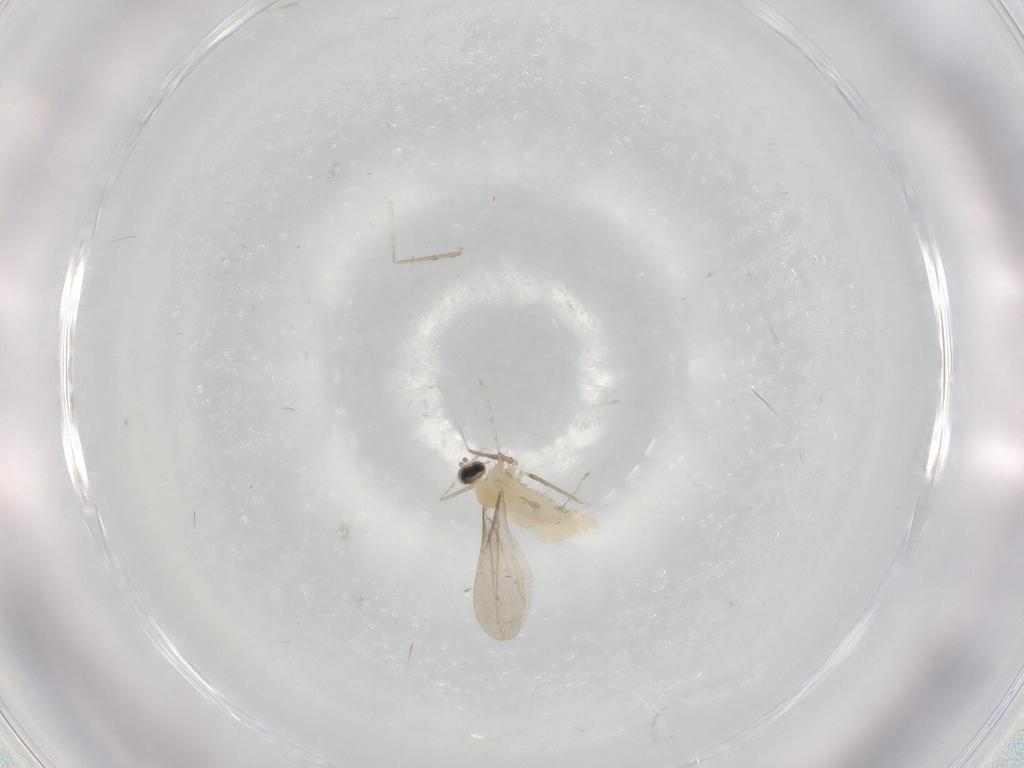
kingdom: Animalia
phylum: Arthropoda
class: Insecta
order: Diptera
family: Cecidomyiidae
